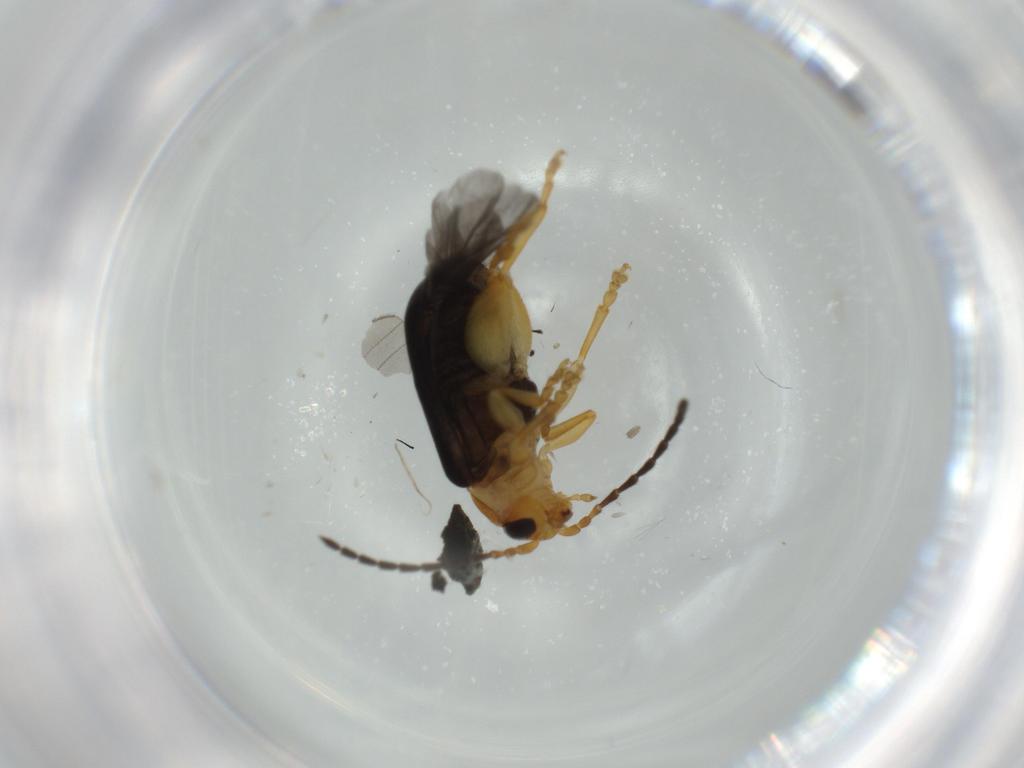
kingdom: Animalia
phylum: Arthropoda
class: Insecta
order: Coleoptera
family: Chrysomelidae
